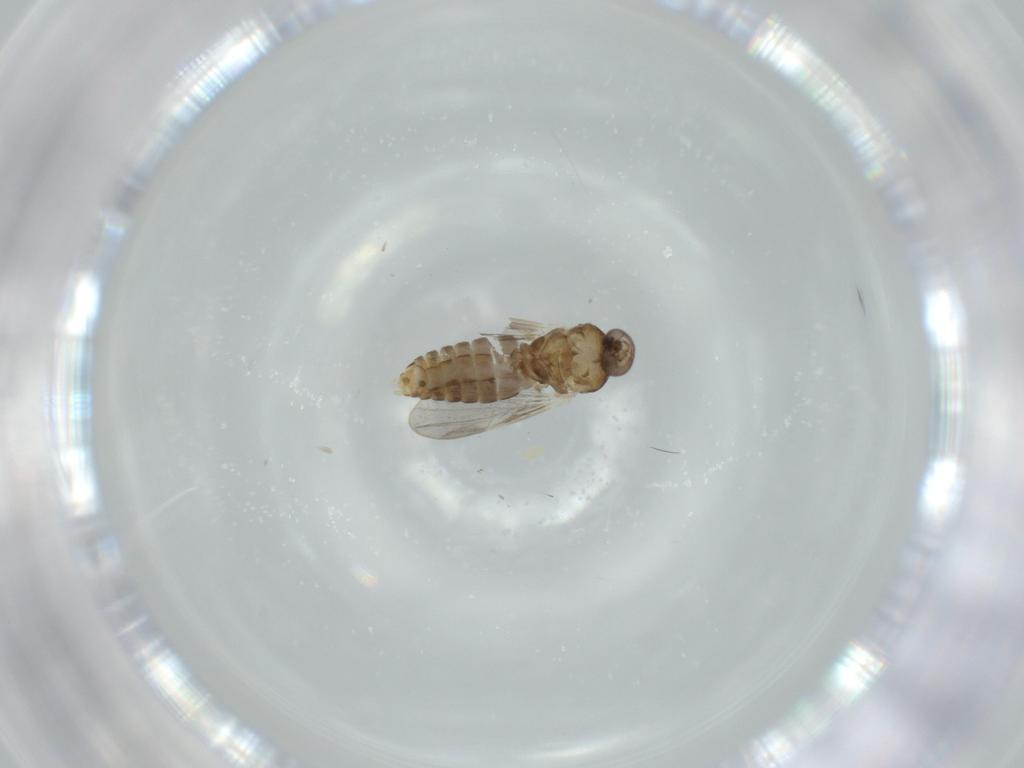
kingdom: Animalia
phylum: Arthropoda
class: Insecta
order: Diptera
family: Ceratopogonidae
